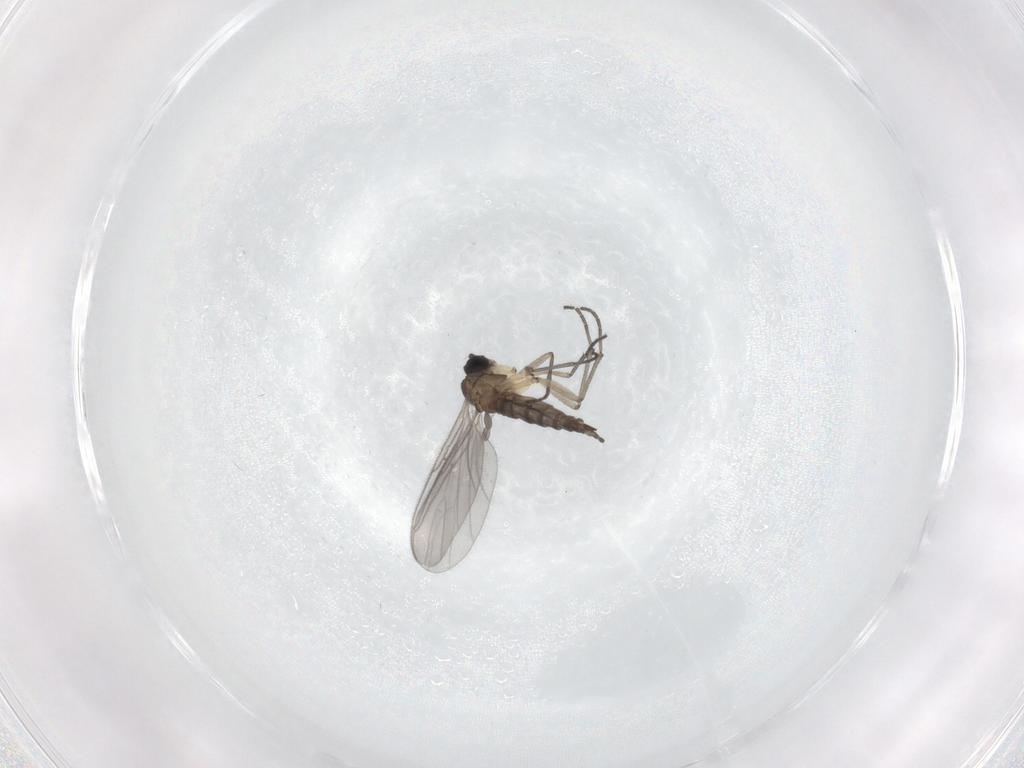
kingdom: Animalia
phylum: Arthropoda
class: Insecta
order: Diptera
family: Sciaridae
